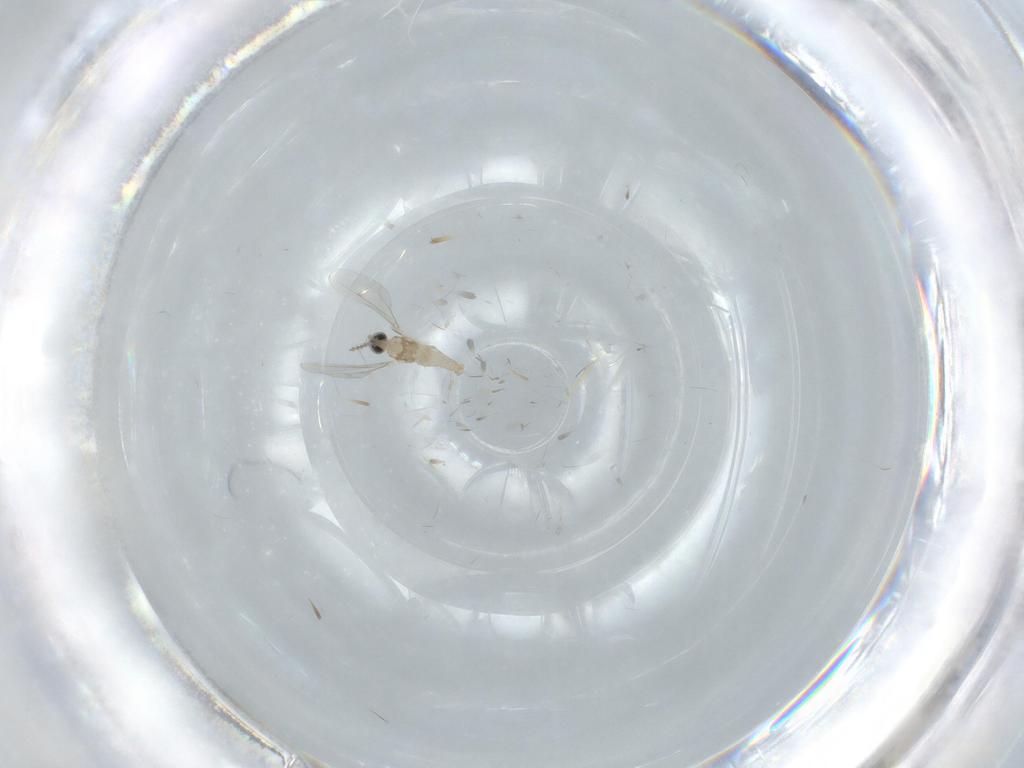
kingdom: Animalia
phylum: Arthropoda
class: Insecta
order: Diptera
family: Cecidomyiidae
